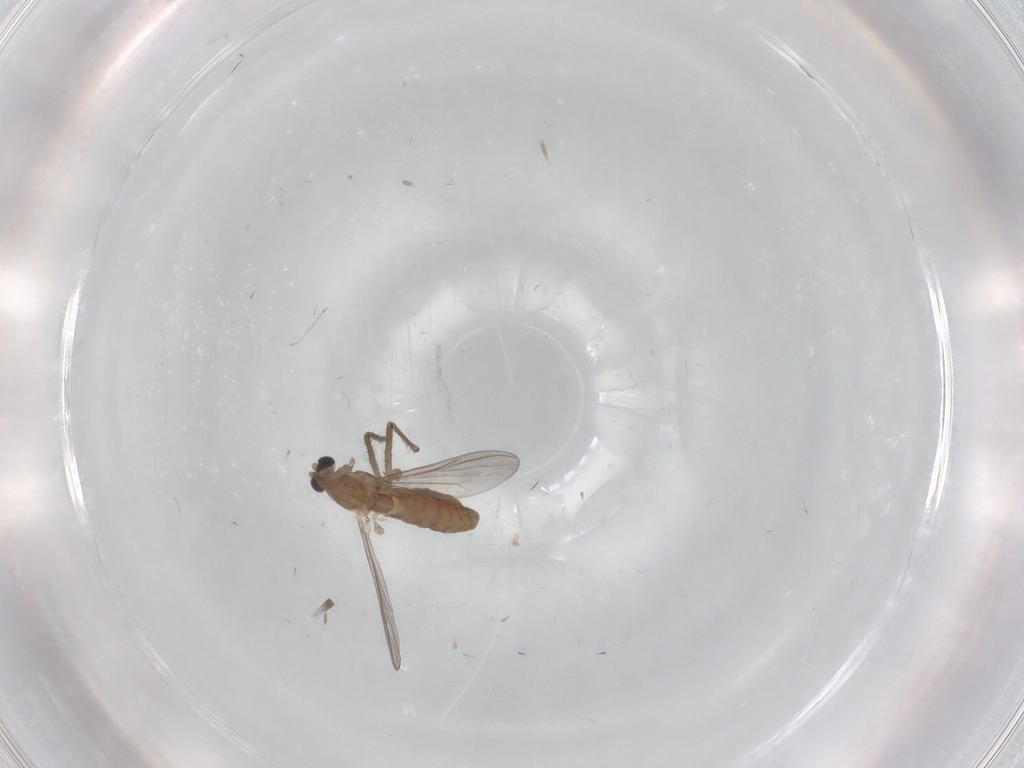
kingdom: Animalia
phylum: Arthropoda
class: Insecta
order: Diptera
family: Chironomidae
